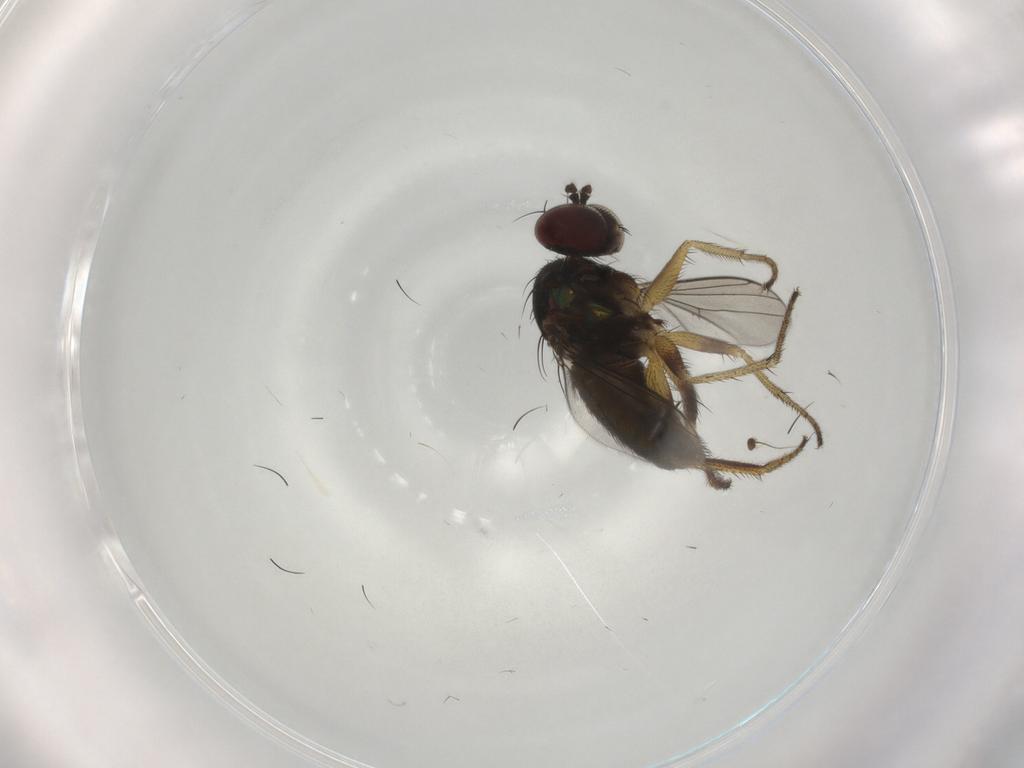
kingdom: Animalia
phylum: Arthropoda
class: Insecta
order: Diptera
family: Dolichopodidae
